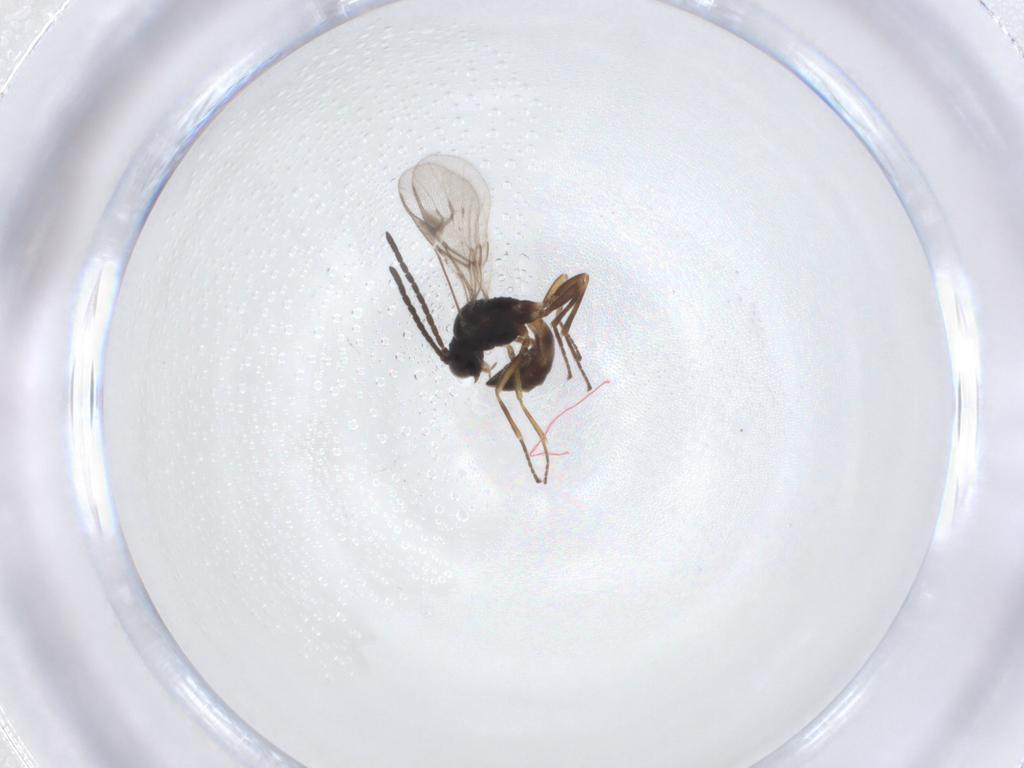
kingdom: Animalia
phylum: Arthropoda
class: Insecta
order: Hymenoptera
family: Braconidae
